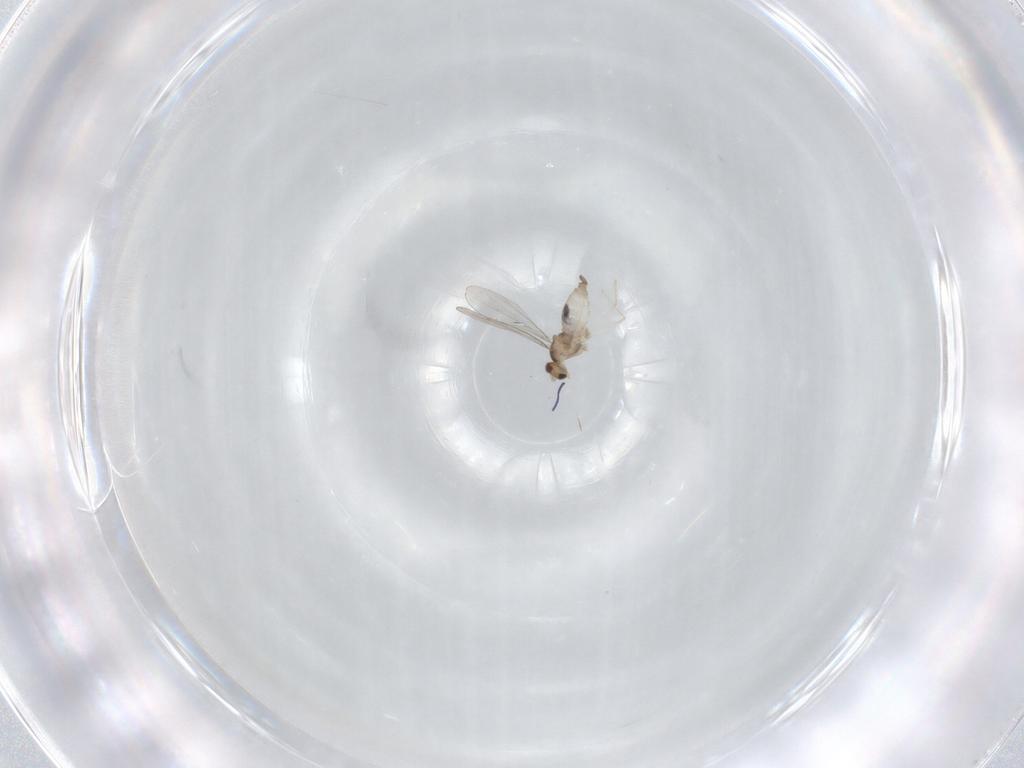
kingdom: Animalia
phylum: Arthropoda
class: Insecta
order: Diptera
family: Cecidomyiidae
